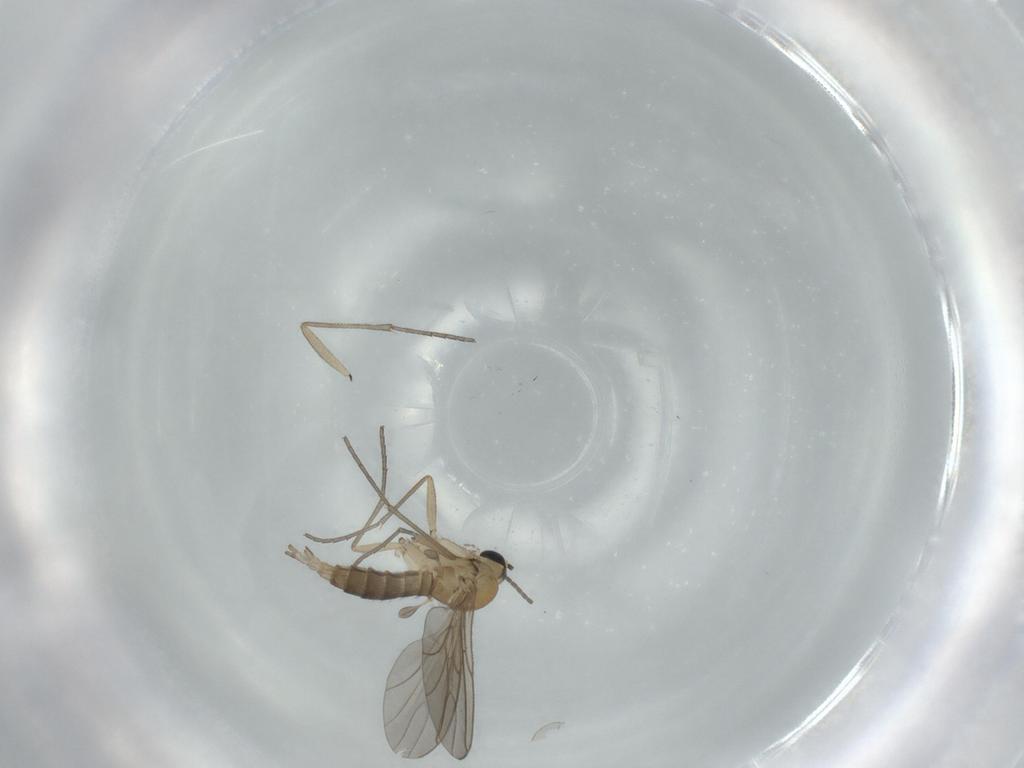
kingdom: Animalia
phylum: Arthropoda
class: Insecta
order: Diptera
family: Sciaridae
